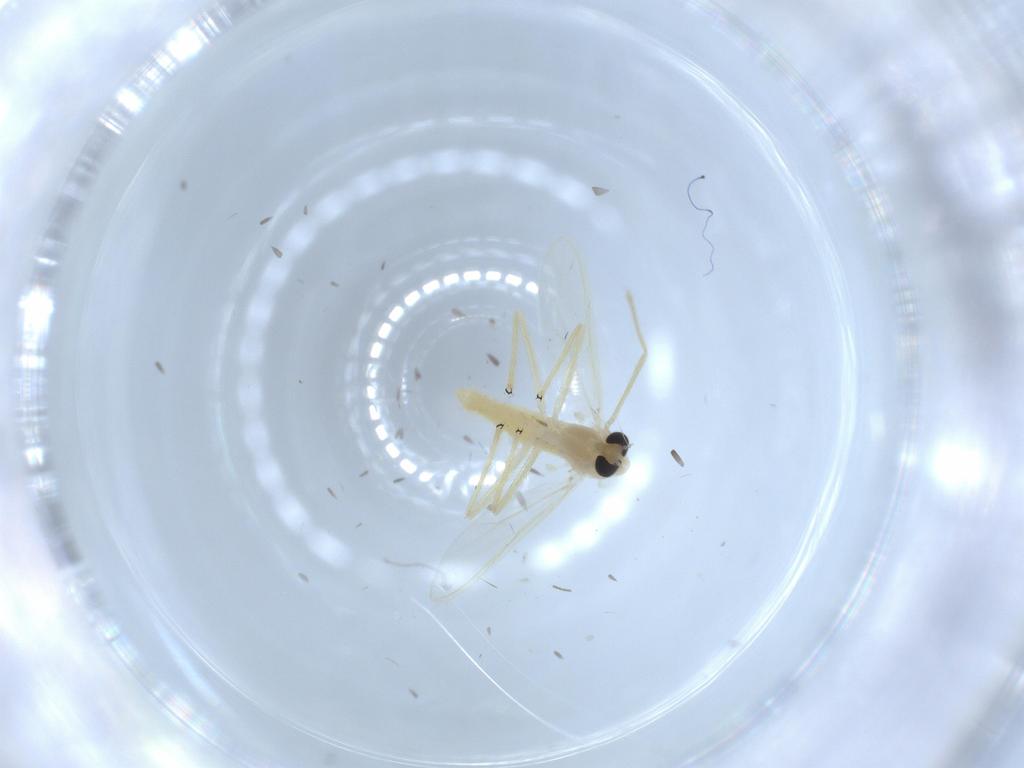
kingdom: Animalia
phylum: Arthropoda
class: Insecta
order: Diptera
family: Chironomidae
